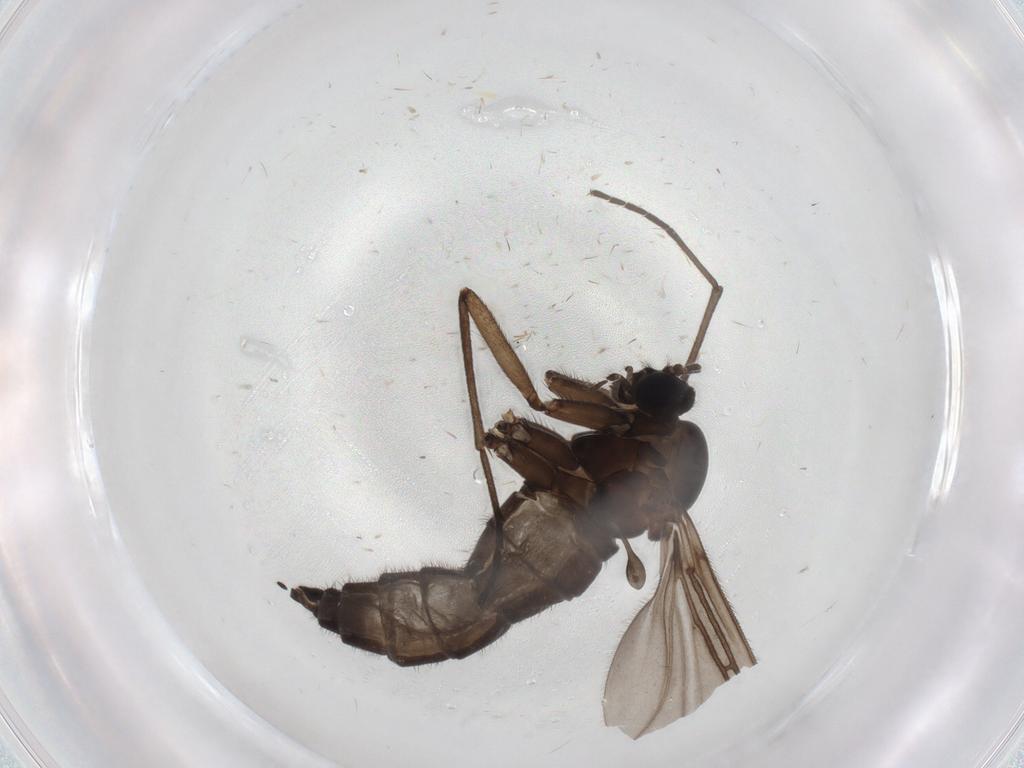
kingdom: Animalia
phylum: Arthropoda
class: Insecta
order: Diptera
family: Sciaridae
